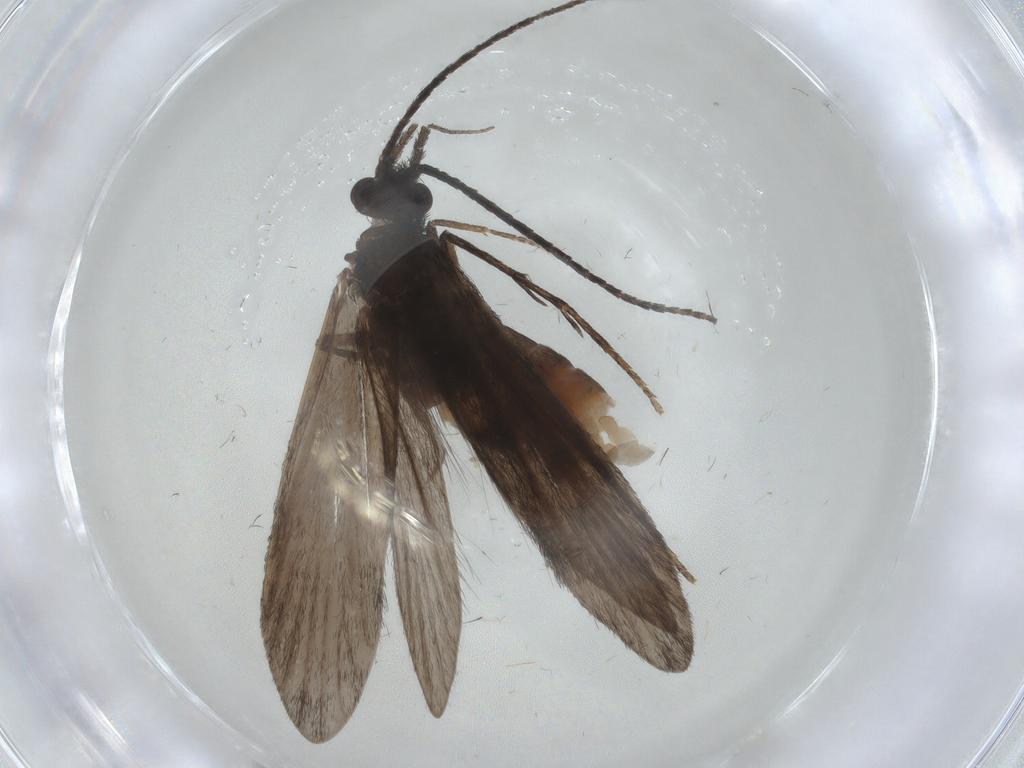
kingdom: Animalia
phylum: Arthropoda
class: Insecta
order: Trichoptera
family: Xiphocentronidae
